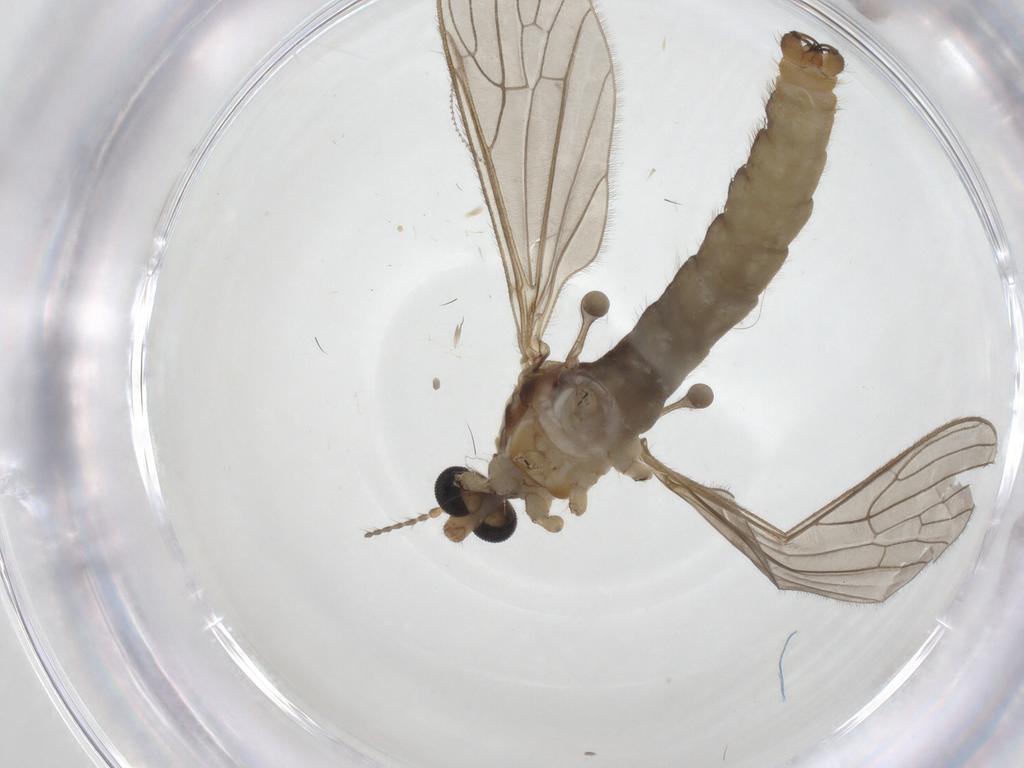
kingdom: Animalia
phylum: Arthropoda
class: Insecta
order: Diptera
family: Limoniidae
